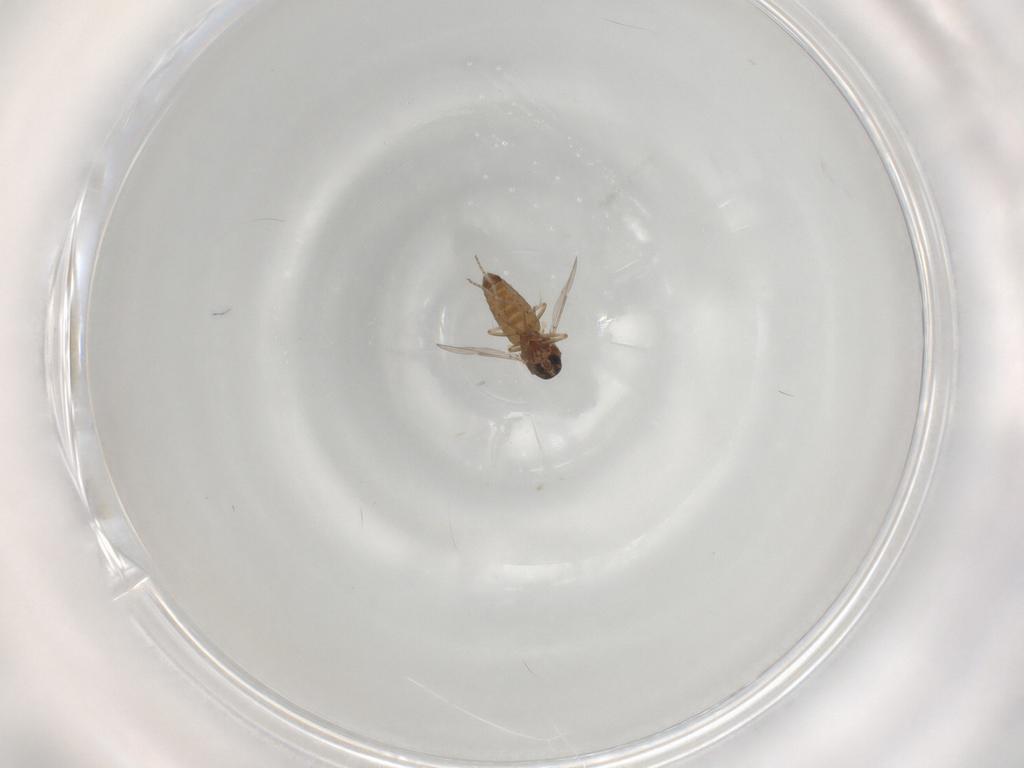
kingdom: Animalia
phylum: Arthropoda
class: Insecta
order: Diptera
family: Ceratopogonidae
